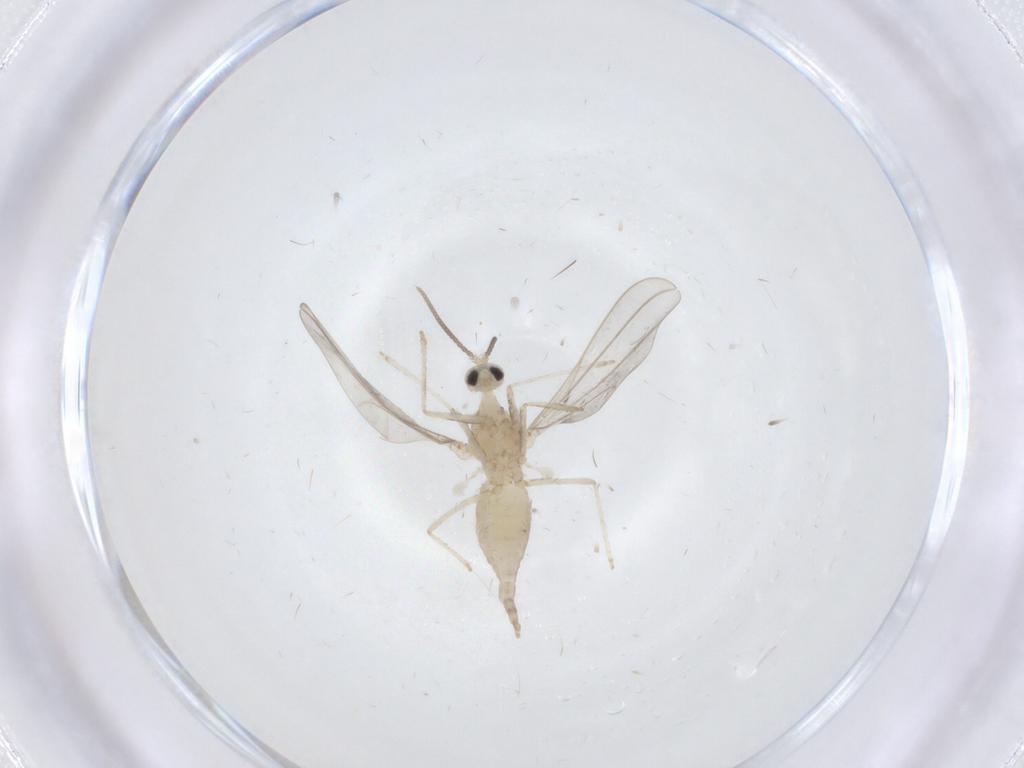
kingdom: Animalia
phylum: Arthropoda
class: Insecta
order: Diptera
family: Cecidomyiidae
